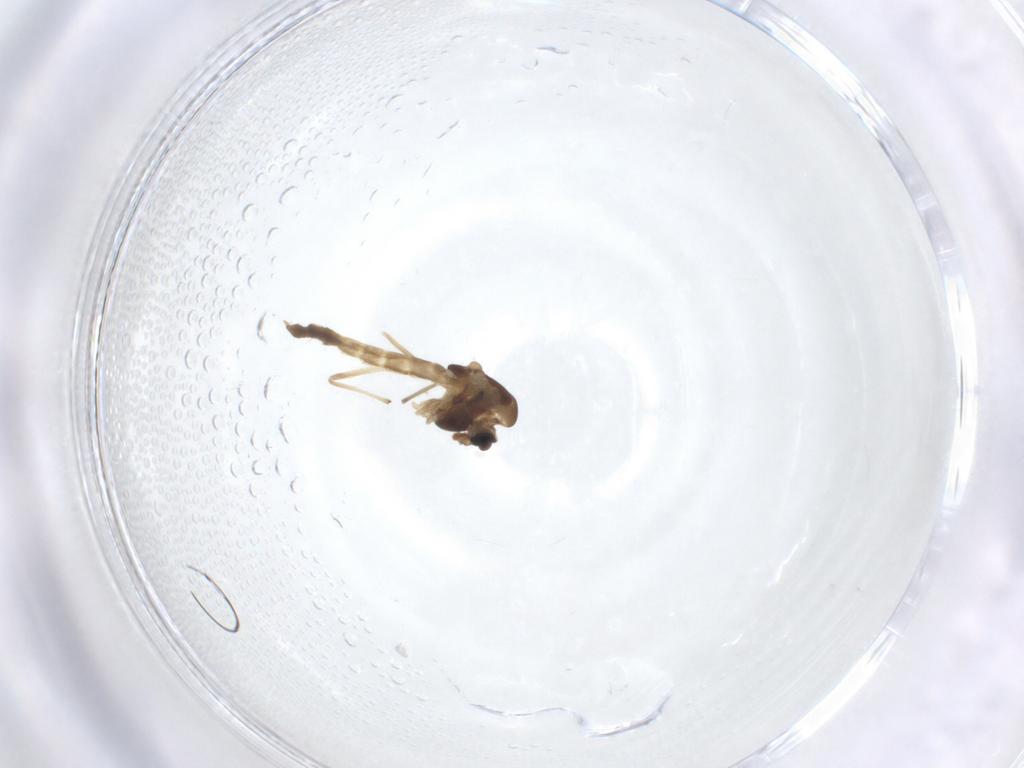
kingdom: Animalia
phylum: Arthropoda
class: Insecta
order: Diptera
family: Chironomidae
